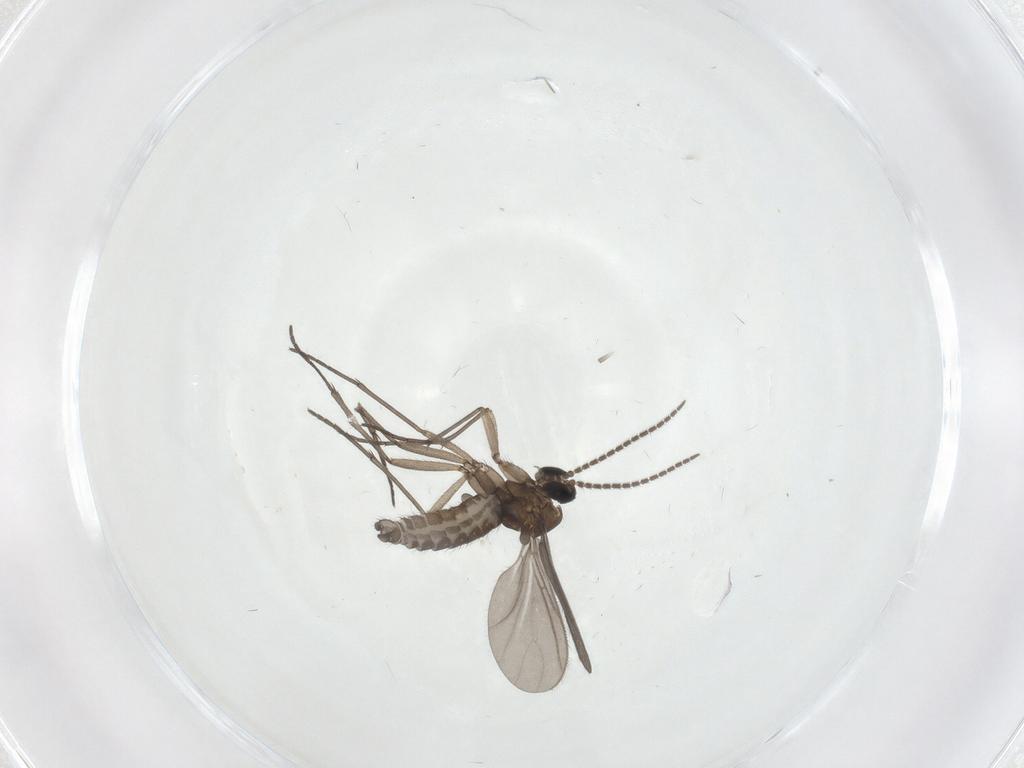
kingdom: Animalia
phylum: Arthropoda
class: Insecta
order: Diptera
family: Sciaridae
